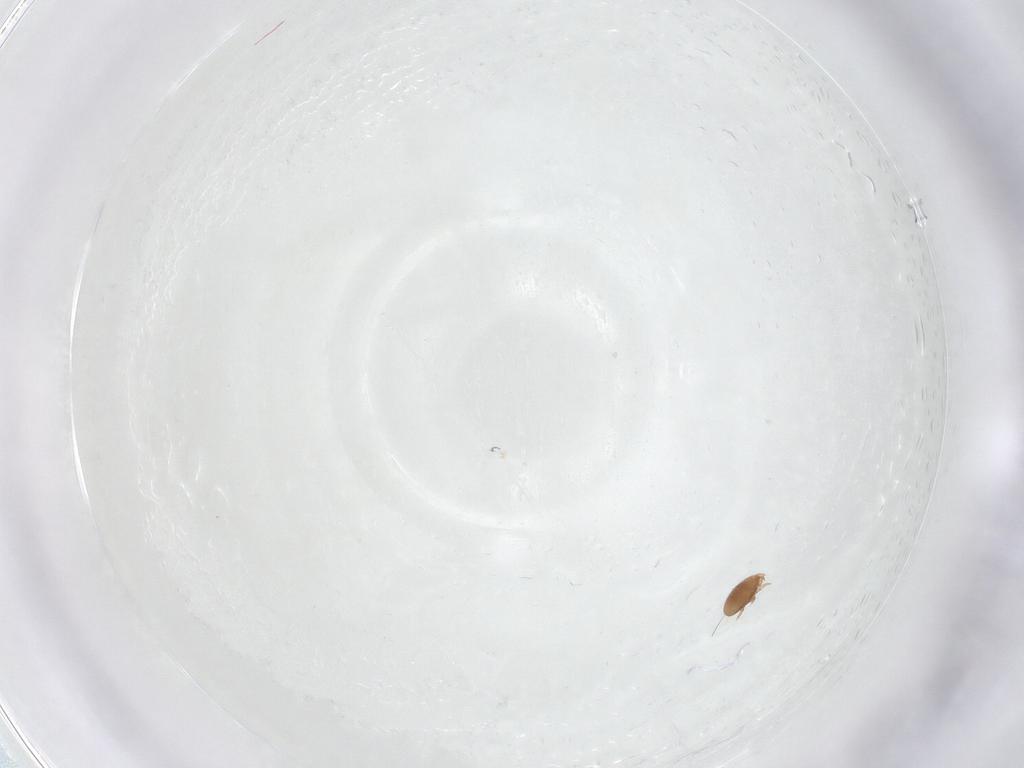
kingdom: Animalia
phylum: Arthropoda
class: Arachnida
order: Mesostigmata
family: Trematuridae
